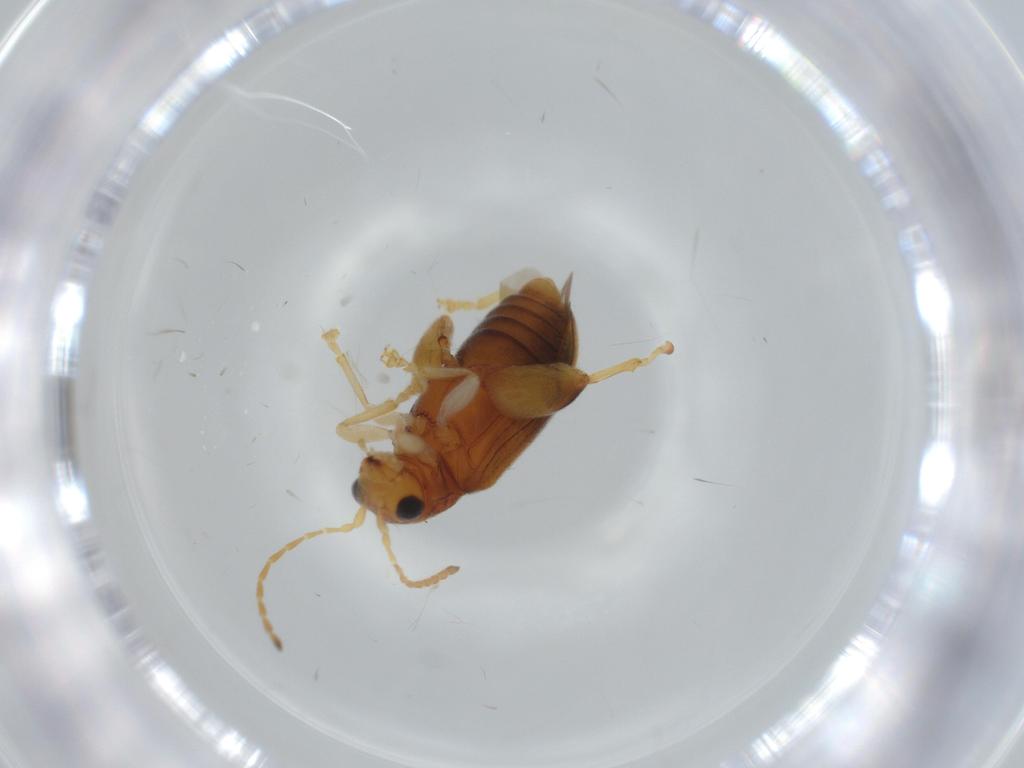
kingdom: Animalia
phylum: Arthropoda
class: Insecta
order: Coleoptera
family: Chrysomelidae
